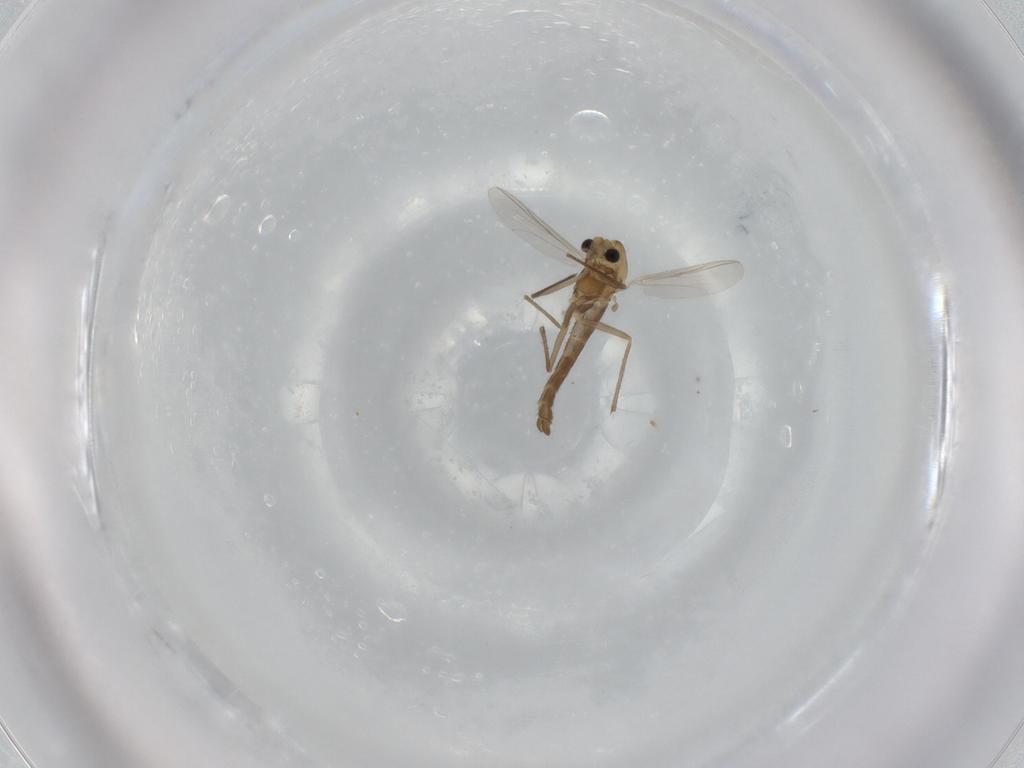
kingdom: Animalia
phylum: Arthropoda
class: Insecta
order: Diptera
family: Chironomidae
